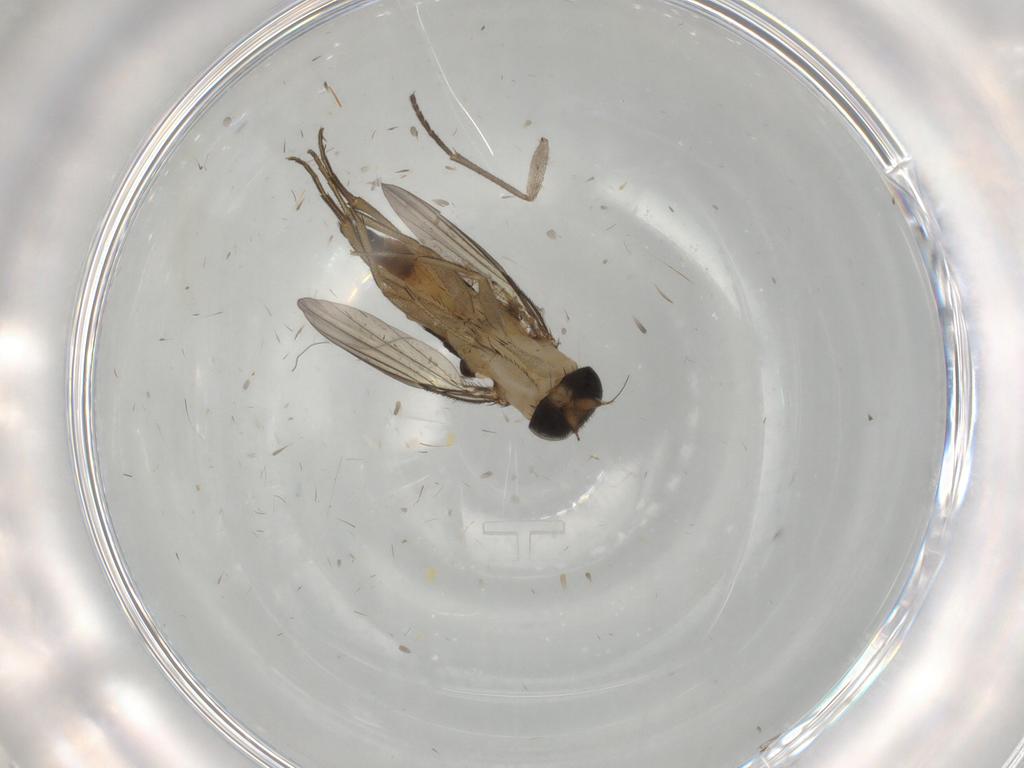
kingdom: Animalia
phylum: Arthropoda
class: Insecta
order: Diptera
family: Phoridae
